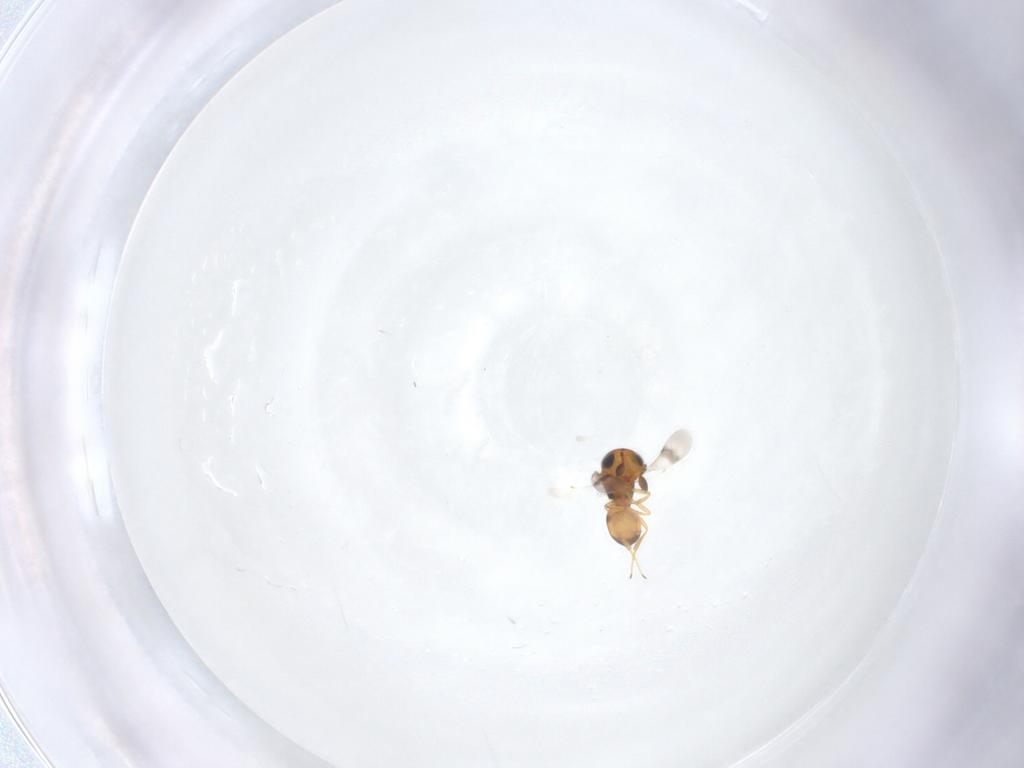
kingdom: Animalia
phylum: Arthropoda
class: Insecta
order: Hymenoptera
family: Scelionidae
